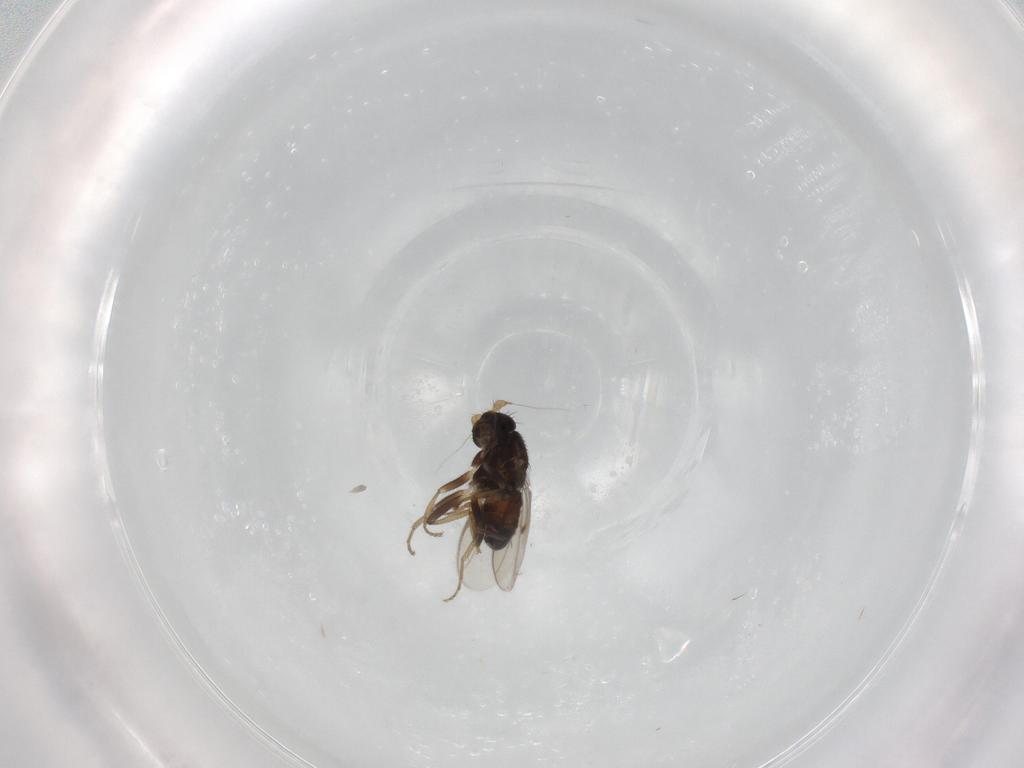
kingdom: Animalia
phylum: Arthropoda
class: Insecta
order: Diptera
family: Sphaeroceridae
